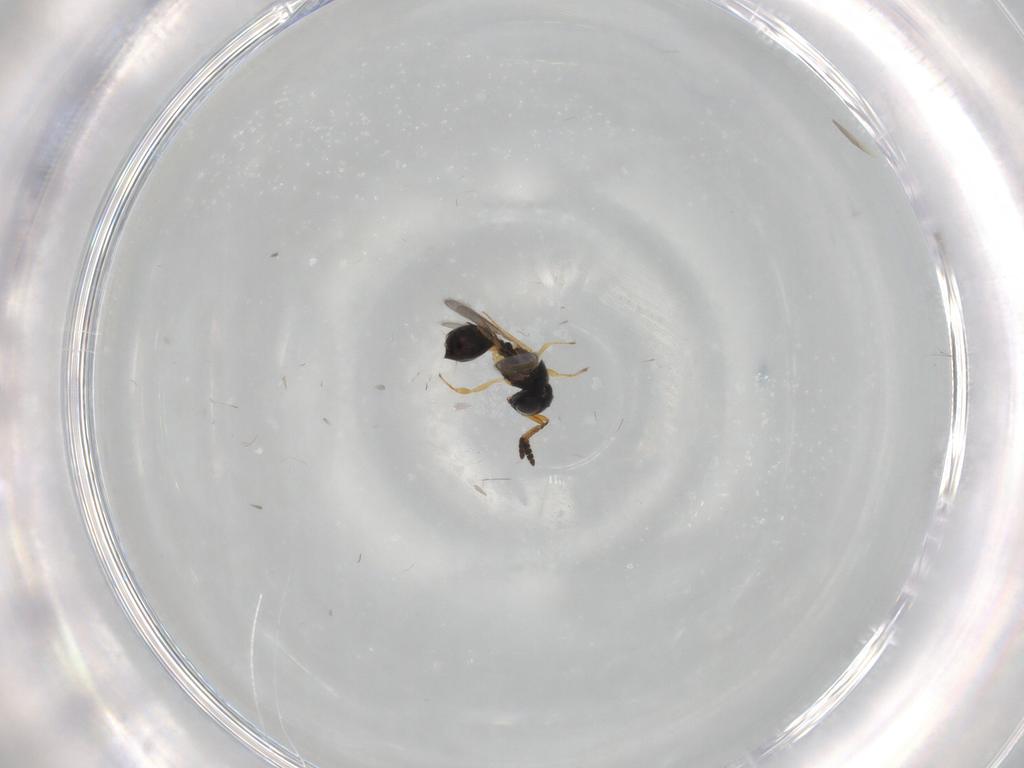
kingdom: Animalia
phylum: Arthropoda
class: Insecta
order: Hymenoptera
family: Scelionidae
